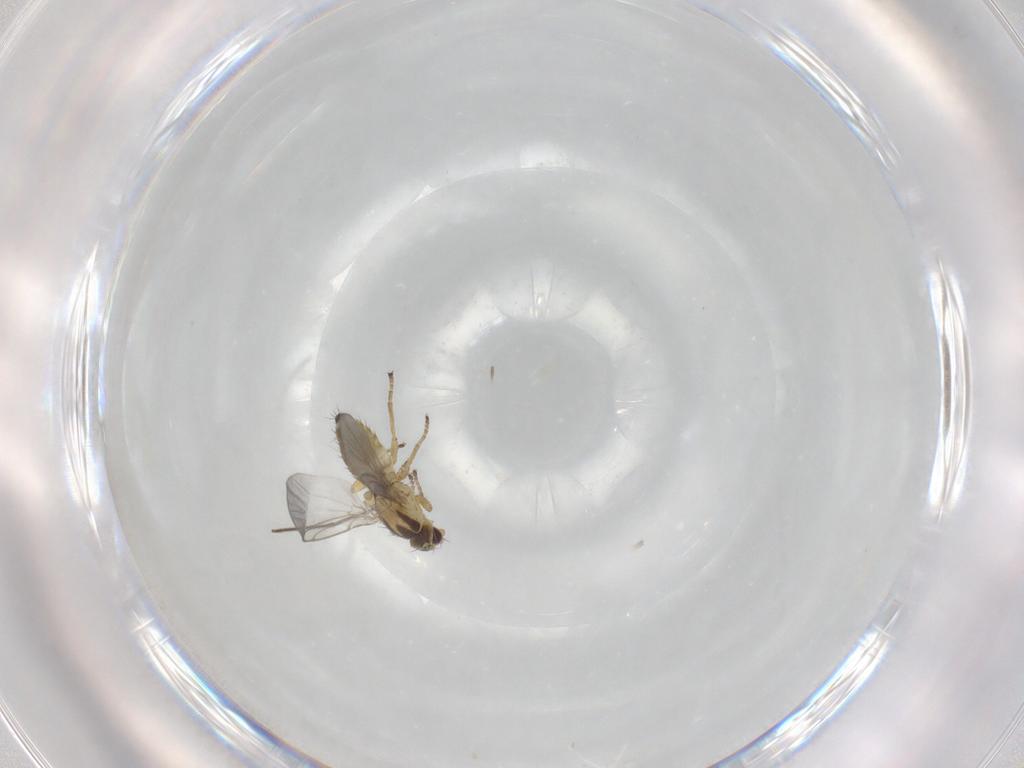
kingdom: Animalia
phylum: Arthropoda
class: Insecta
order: Diptera
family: Agromyzidae
